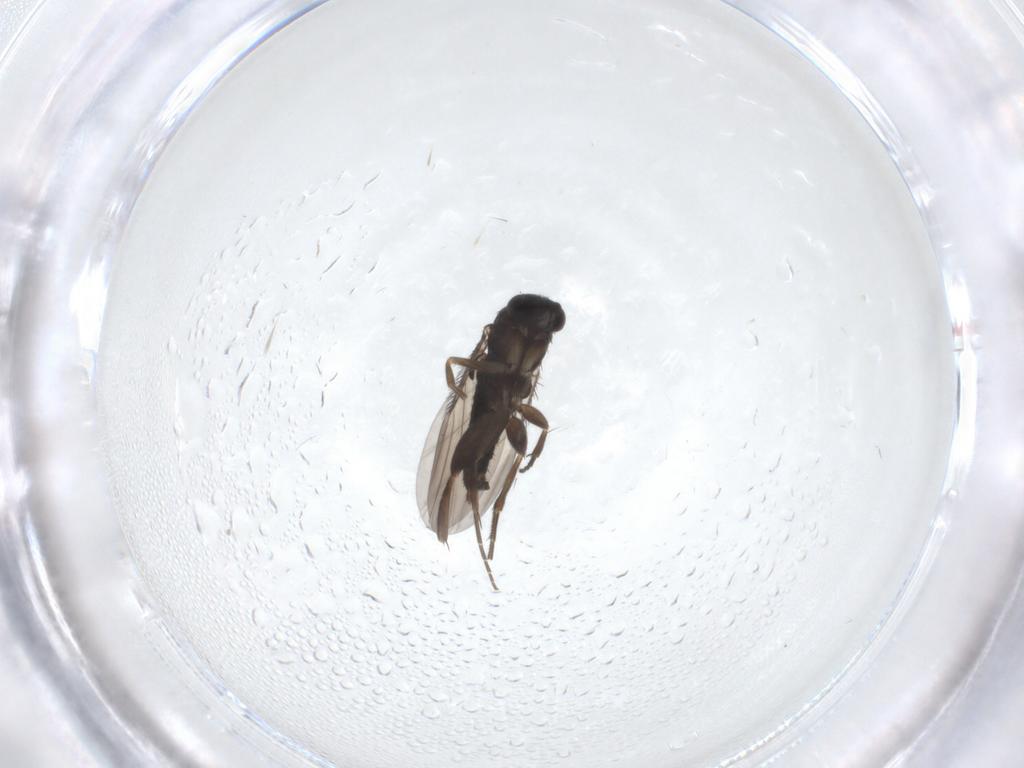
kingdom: Animalia
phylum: Arthropoda
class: Insecta
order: Diptera
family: Phoridae
